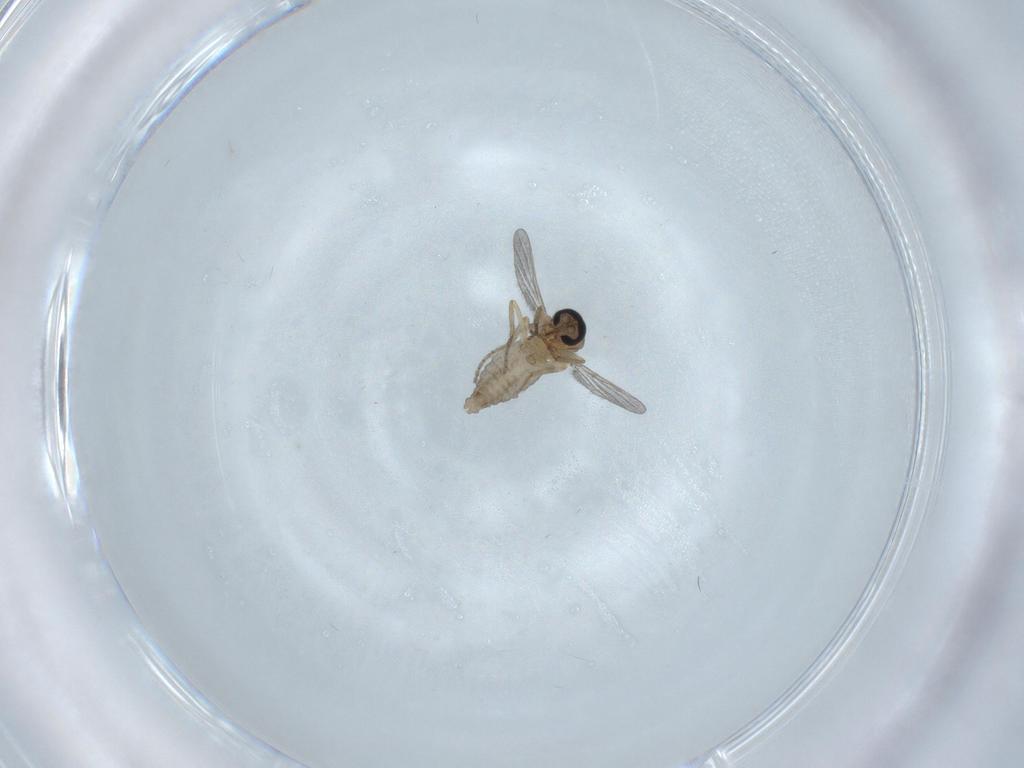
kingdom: Animalia
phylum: Arthropoda
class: Insecta
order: Diptera
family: Ceratopogonidae
